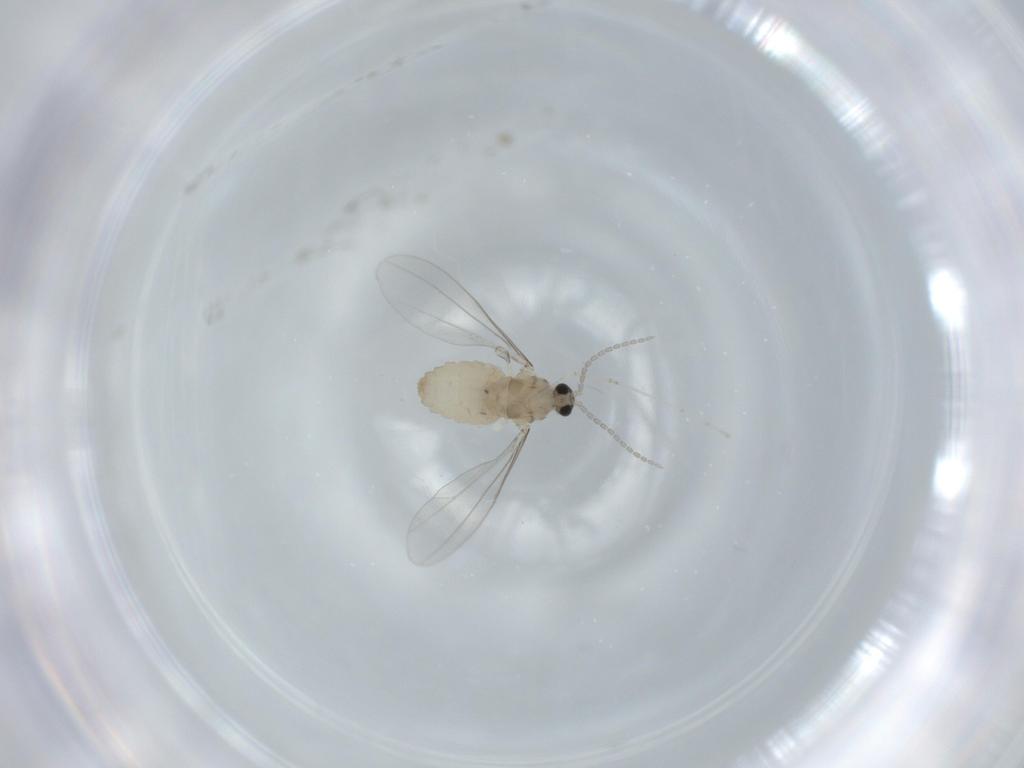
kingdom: Animalia
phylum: Arthropoda
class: Insecta
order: Diptera
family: Cecidomyiidae
